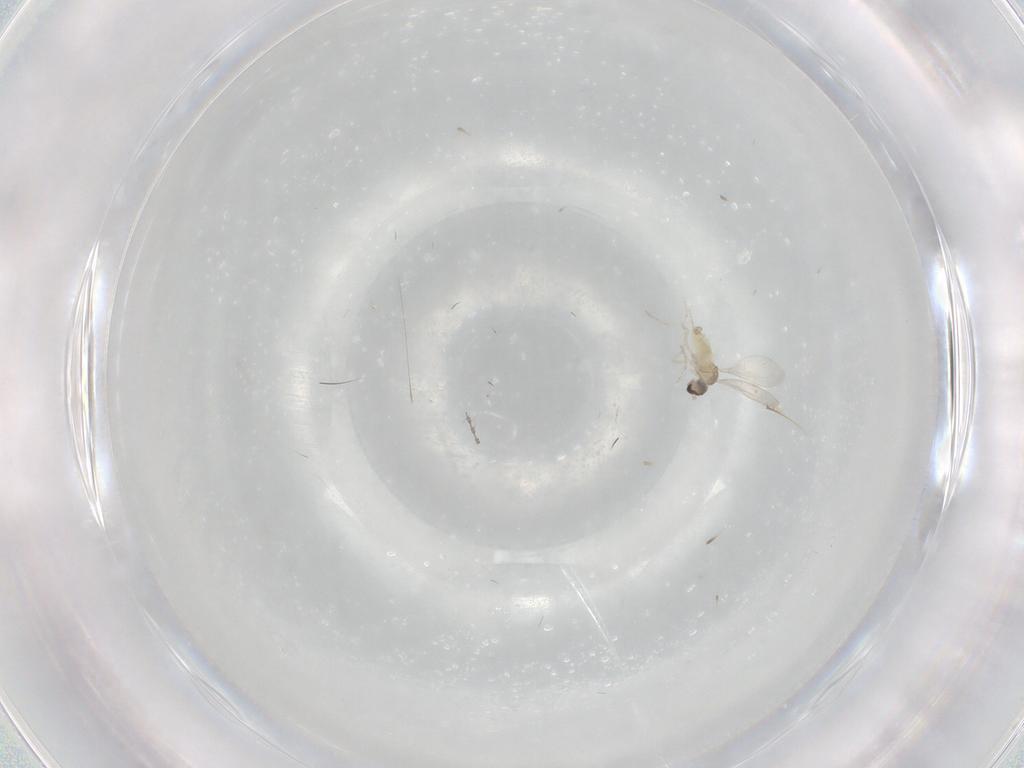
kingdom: Animalia
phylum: Arthropoda
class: Insecta
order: Diptera
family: Cecidomyiidae
